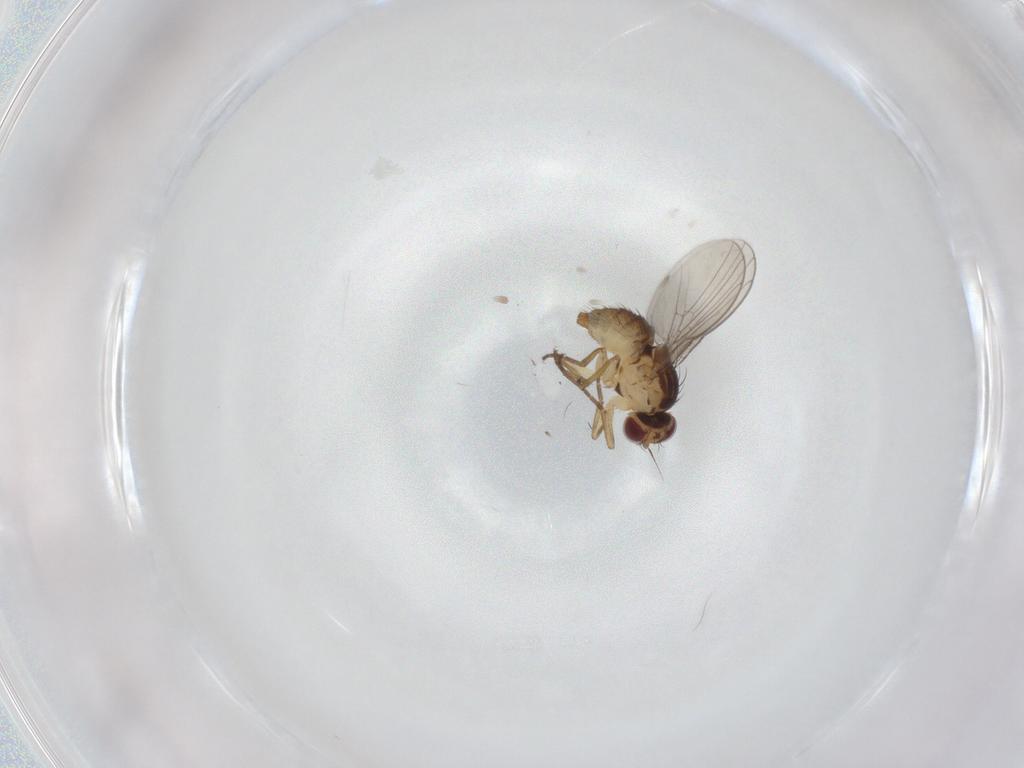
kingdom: Animalia
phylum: Arthropoda
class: Insecta
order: Diptera
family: Agromyzidae
